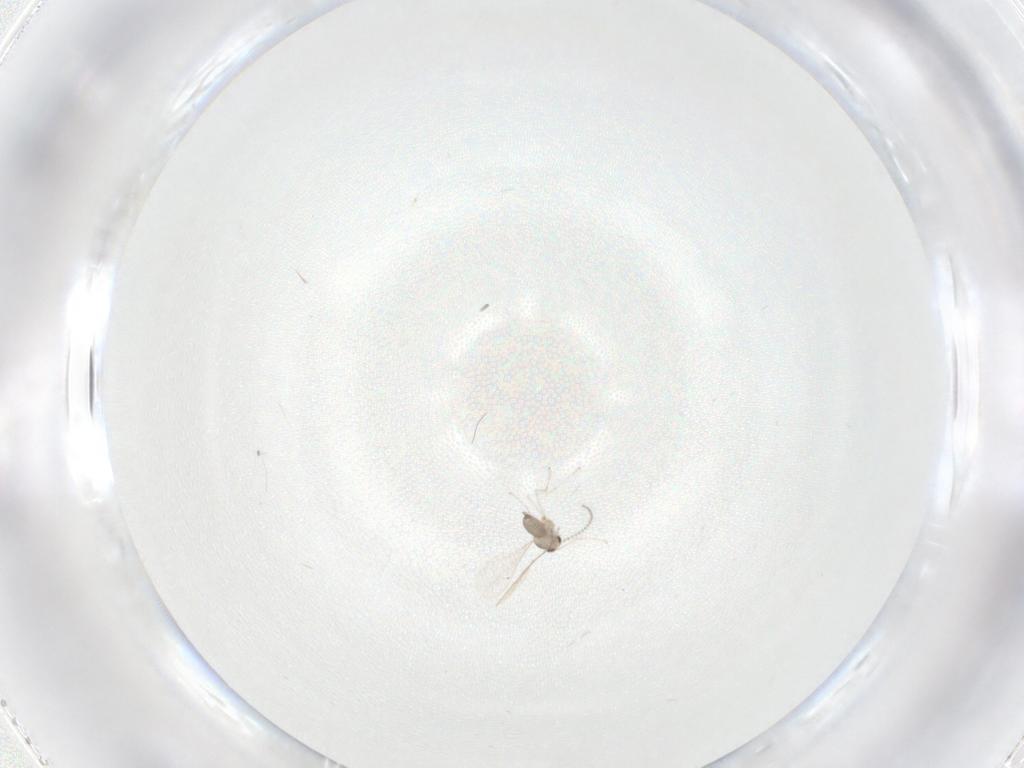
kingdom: Animalia
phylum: Arthropoda
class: Insecta
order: Diptera
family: Cecidomyiidae
